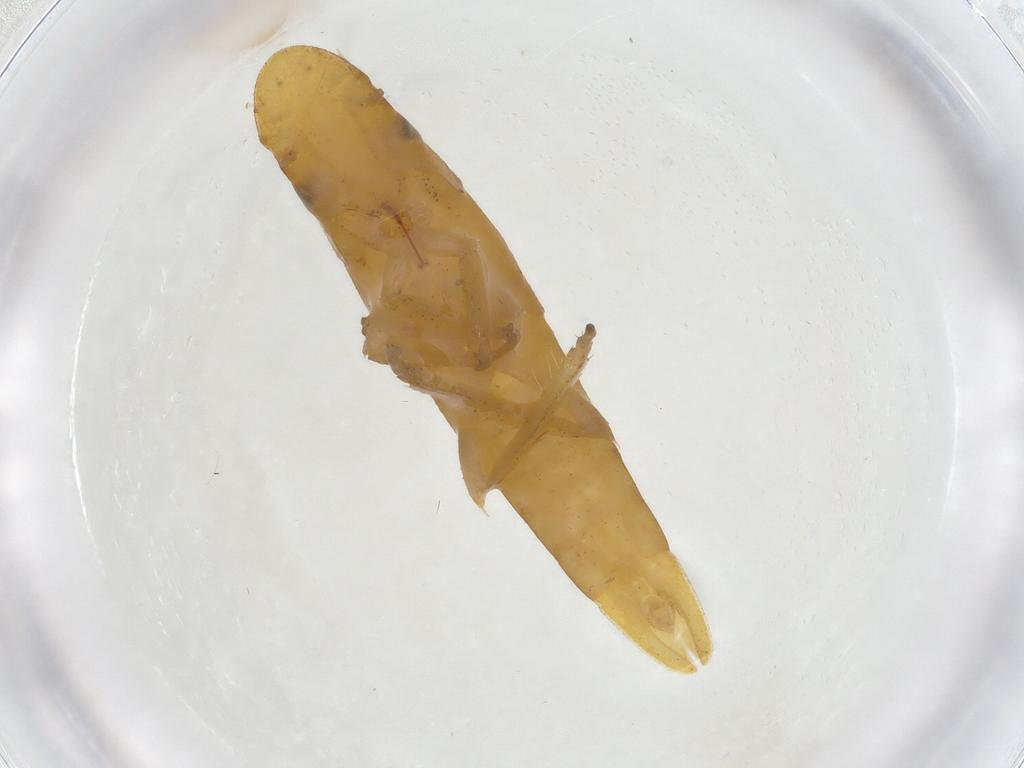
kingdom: Animalia
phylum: Arthropoda
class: Insecta
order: Hemiptera
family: Cicadellidae
